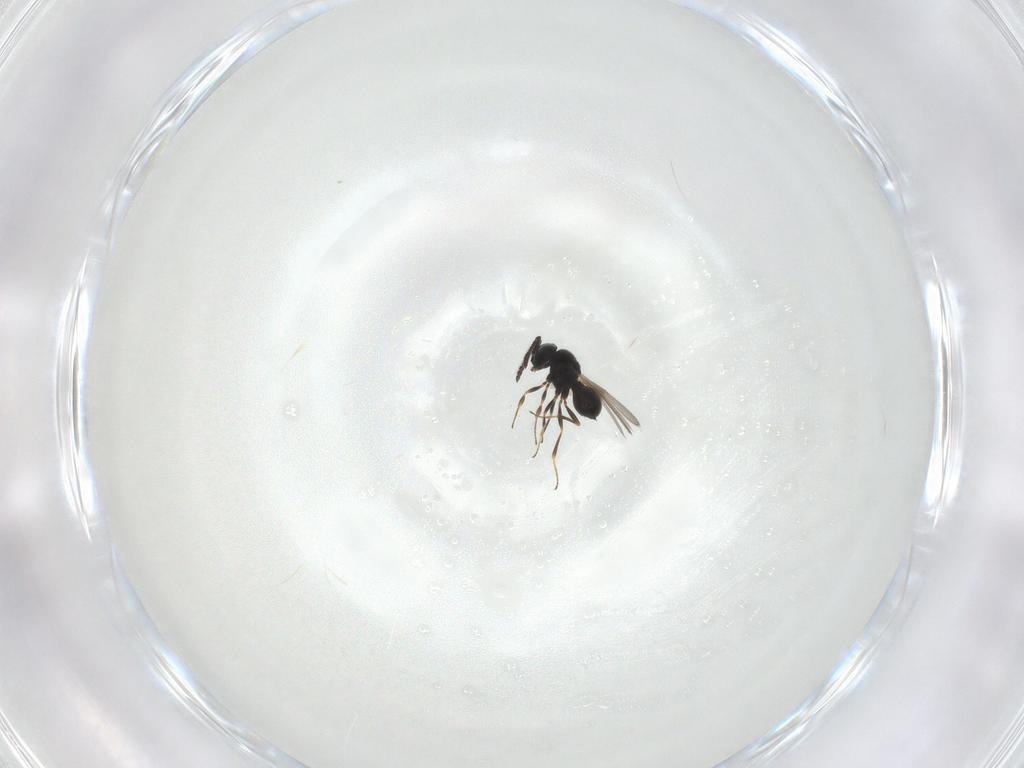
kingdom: Animalia
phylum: Arthropoda
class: Insecta
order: Hymenoptera
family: Scelionidae
